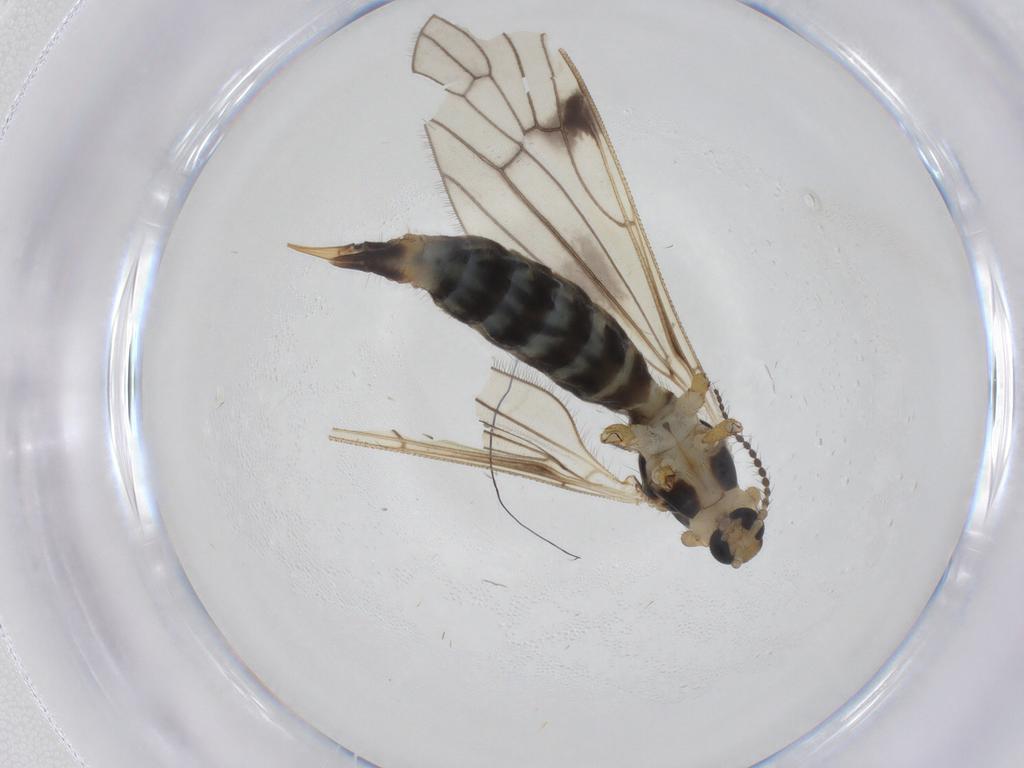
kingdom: Animalia
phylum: Arthropoda
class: Insecta
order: Diptera
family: Limoniidae
